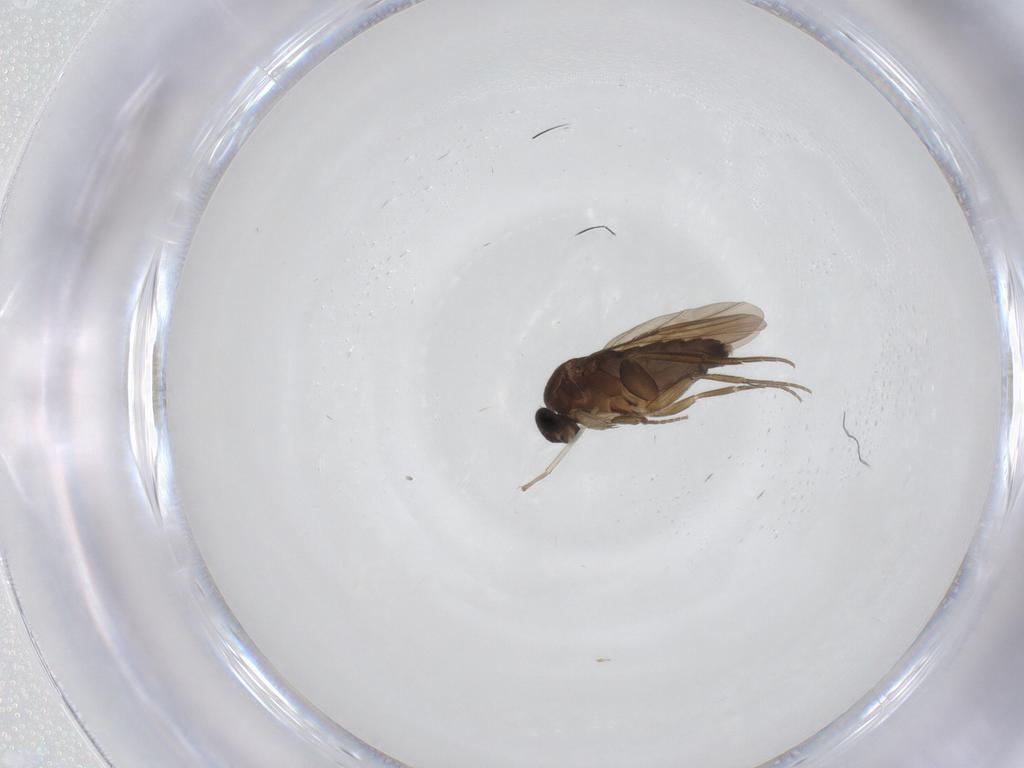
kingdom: Animalia
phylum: Arthropoda
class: Insecta
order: Diptera
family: Phoridae
